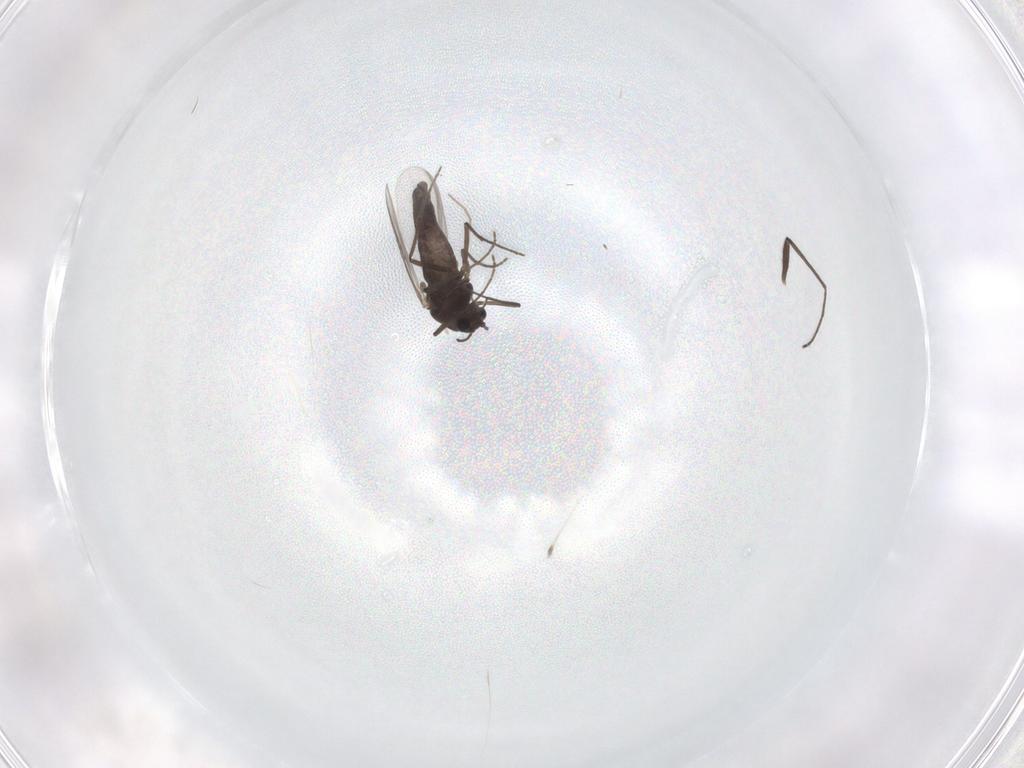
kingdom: Animalia
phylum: Arthropoda
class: Insecta
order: Diptera
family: Chironomidae
